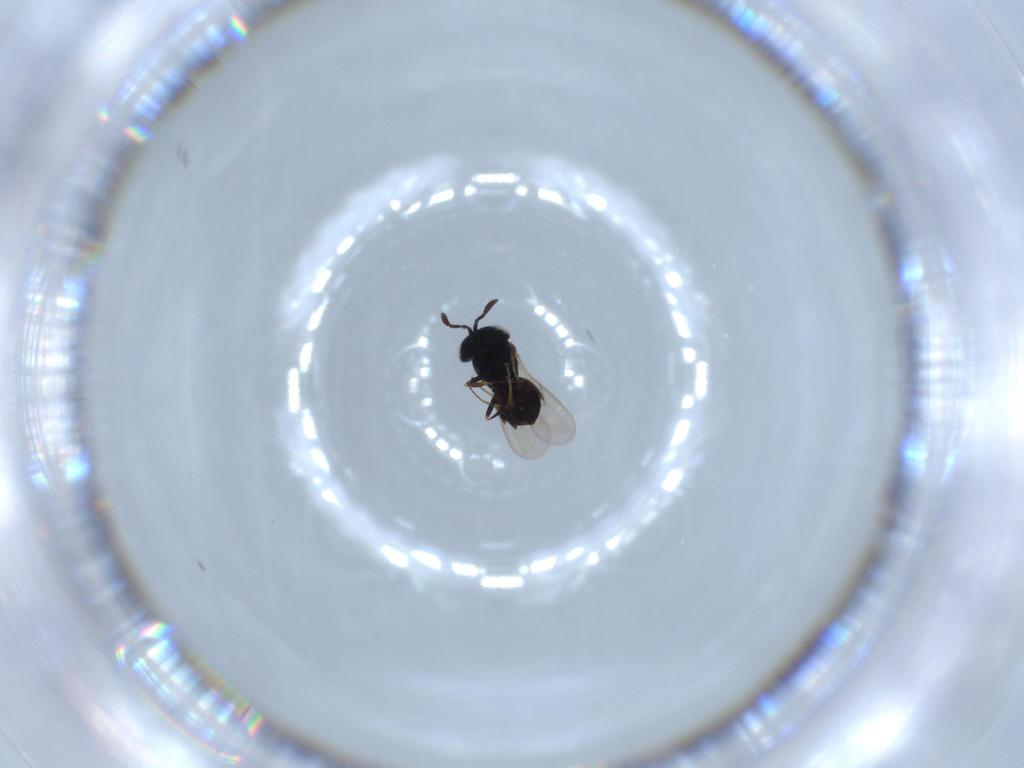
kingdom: Animalia
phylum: Arthropoda
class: Insecta
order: Hymenoptera
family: Scelionidae
